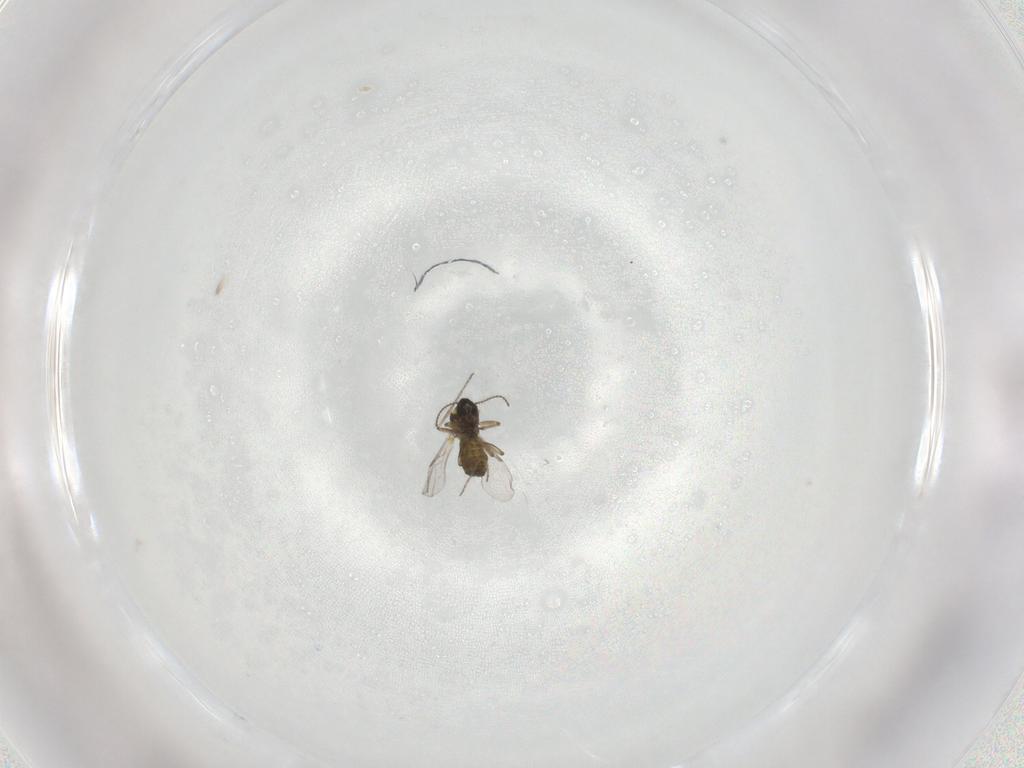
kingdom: Animalia
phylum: Arthropoda
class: Insecta
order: Diptera
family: Ceratopogonidae
